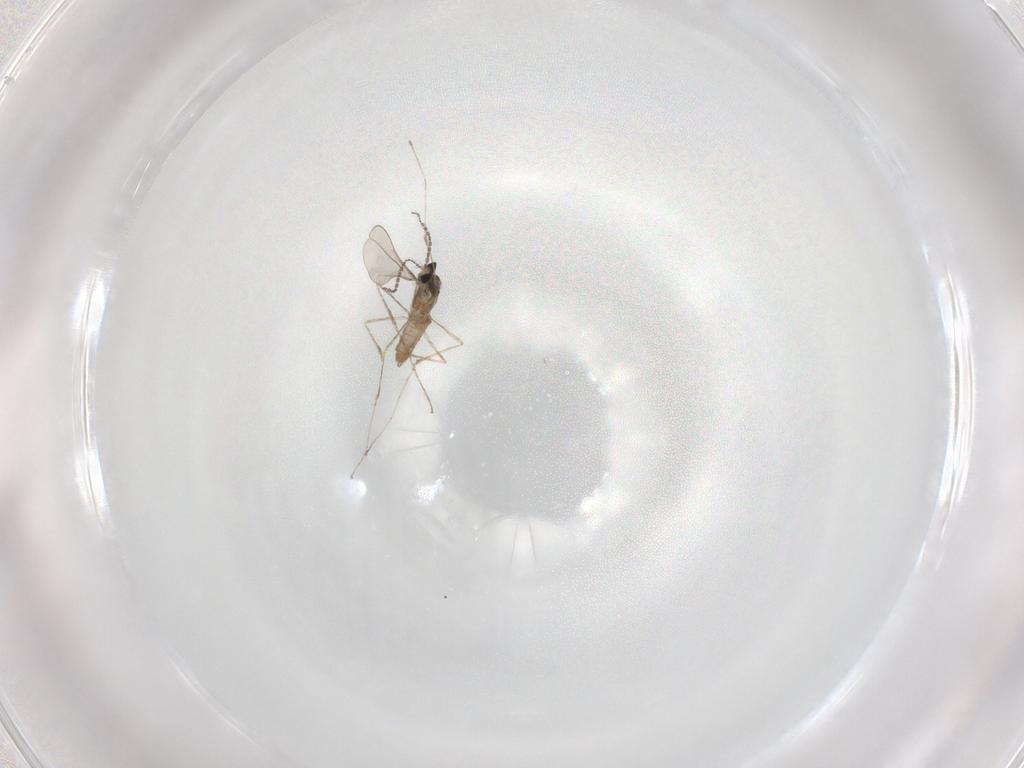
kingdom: Animalia
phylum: Arthropoda
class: Insecta
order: Diptera
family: Cecidomyiidae
